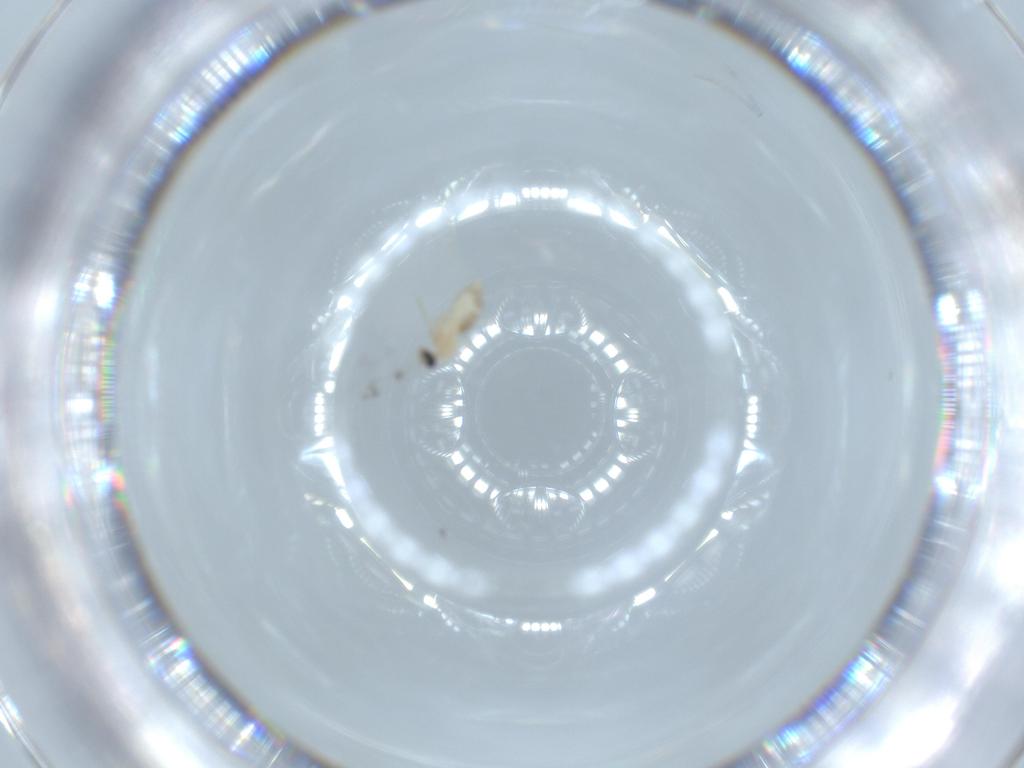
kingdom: Animalia
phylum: Arthropoda
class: Insecta
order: Diptera
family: Cecidomyiidae
